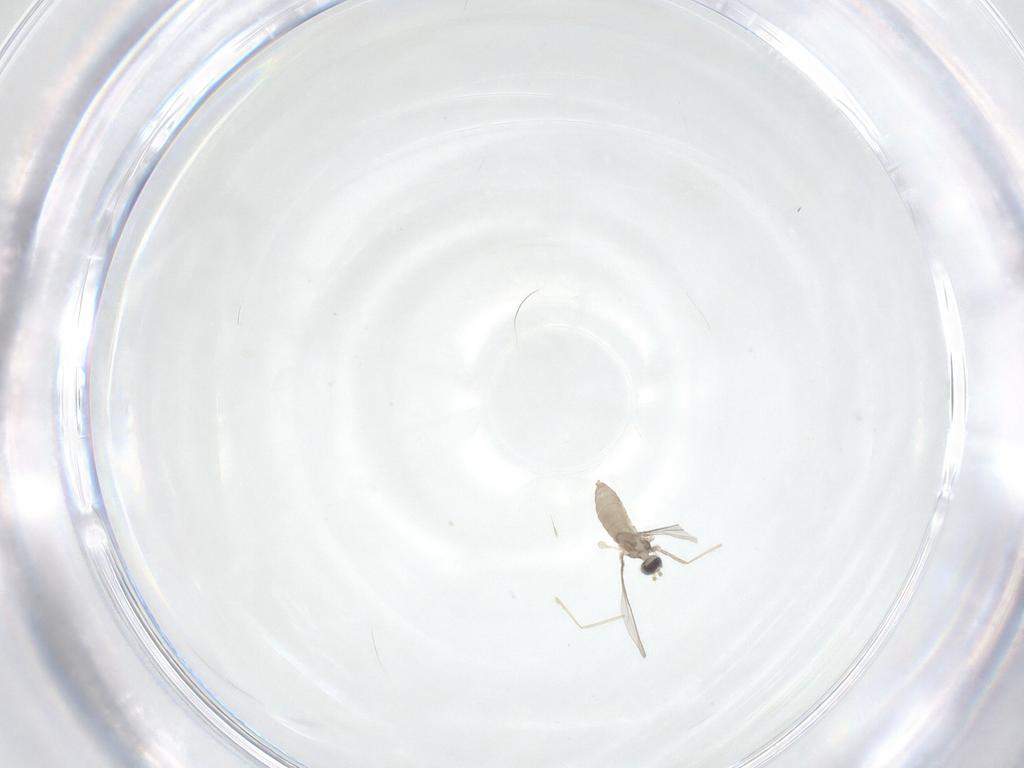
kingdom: Animalia
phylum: Arthropoda
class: Insecta
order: Diptera
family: Cecidomyiidae
